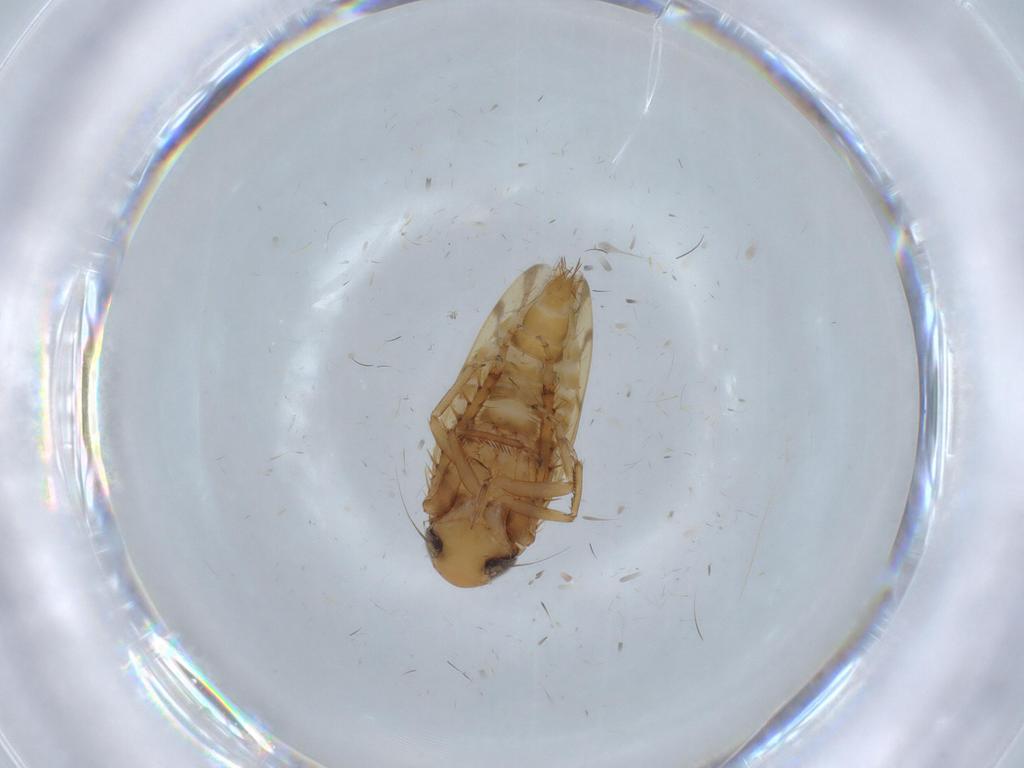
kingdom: Animalia
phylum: Arthropoda
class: Insecta
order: Hemiptera
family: Cicadellidae
